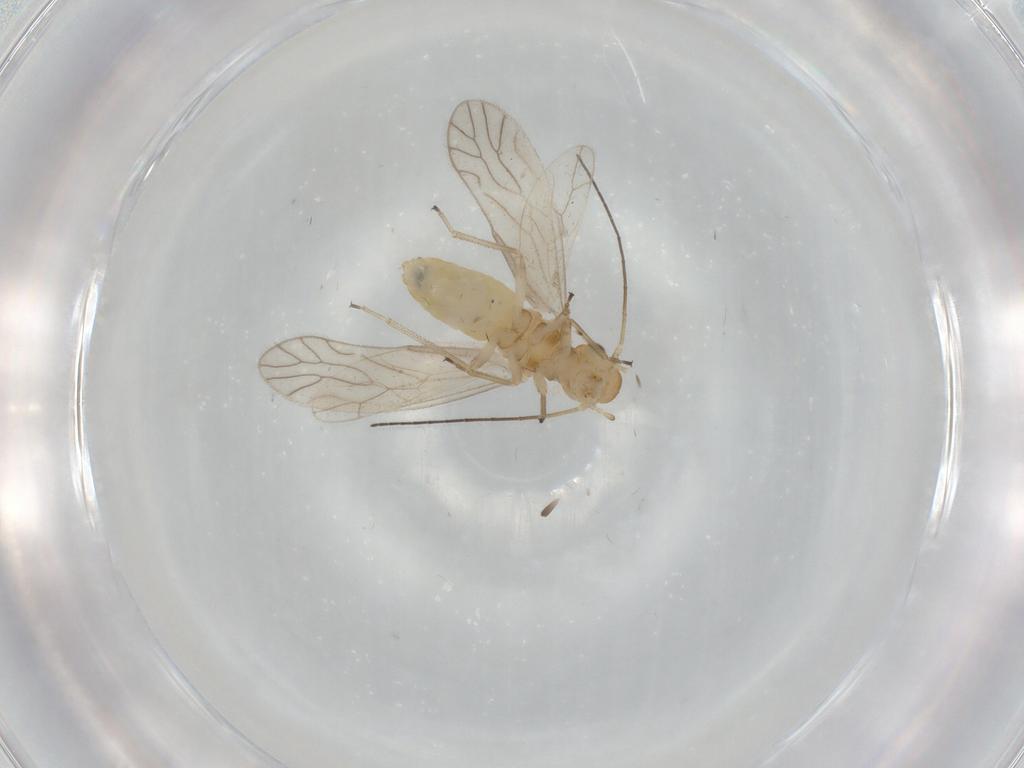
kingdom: Animalia
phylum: Arthropoda
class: Insecta
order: Psocodea
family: Caeciliusidae
